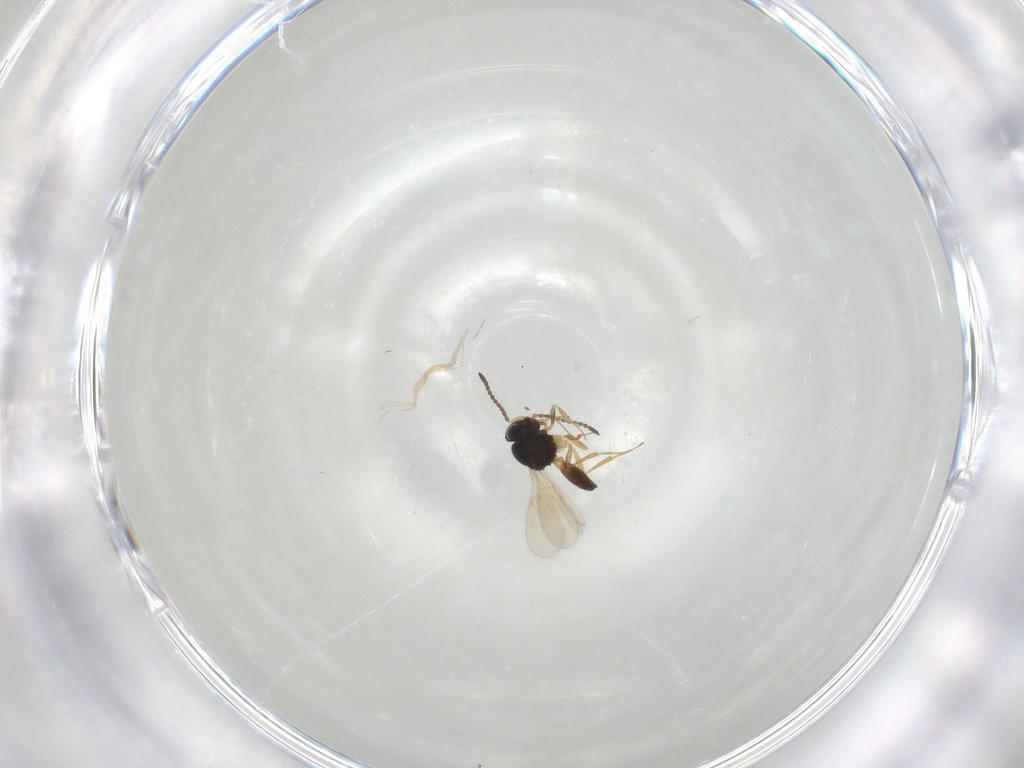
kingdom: Animalia
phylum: Arthropoda
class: Insecta
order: Hymenoptera
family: Scelionidae
